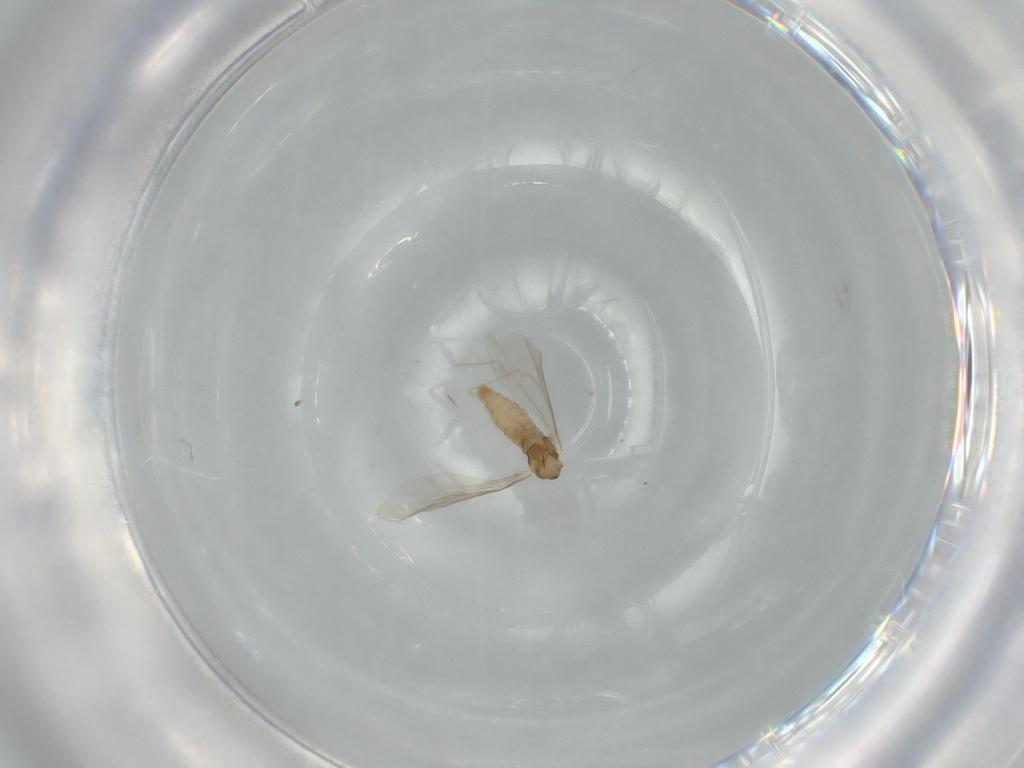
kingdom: Animalia
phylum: Arthropoda
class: Insecta
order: Diptera
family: Cecidomyiidae
